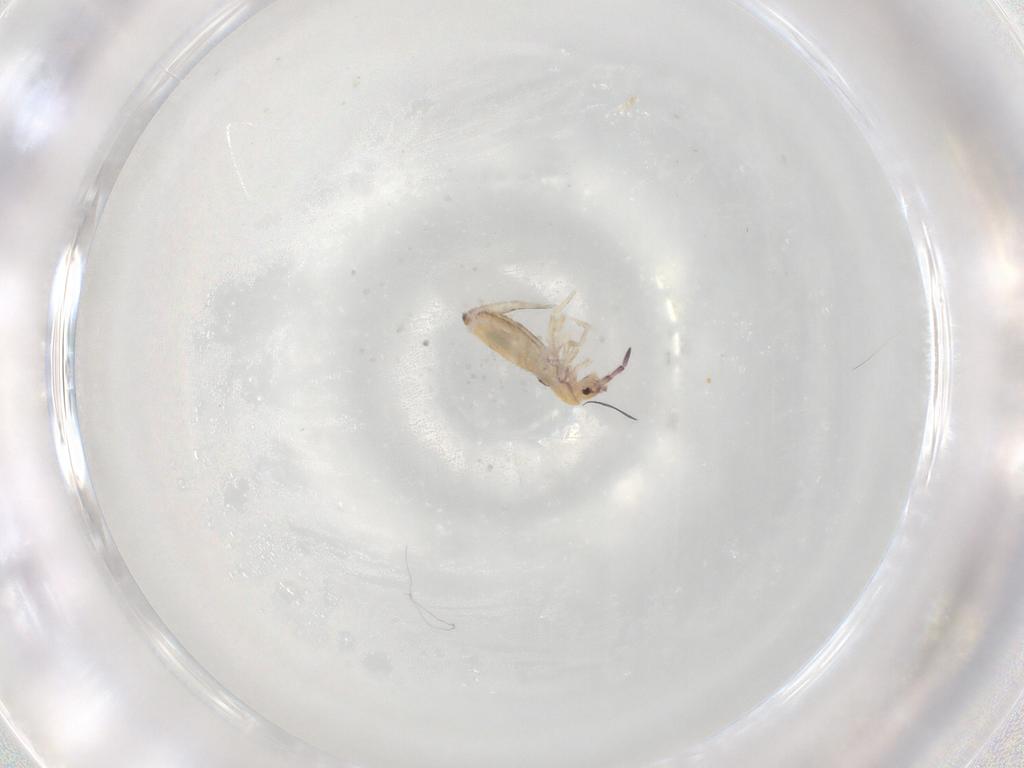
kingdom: Animalia
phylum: Arthropoda
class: Collembola
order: Entomobryomorpha
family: Entomobryidae
